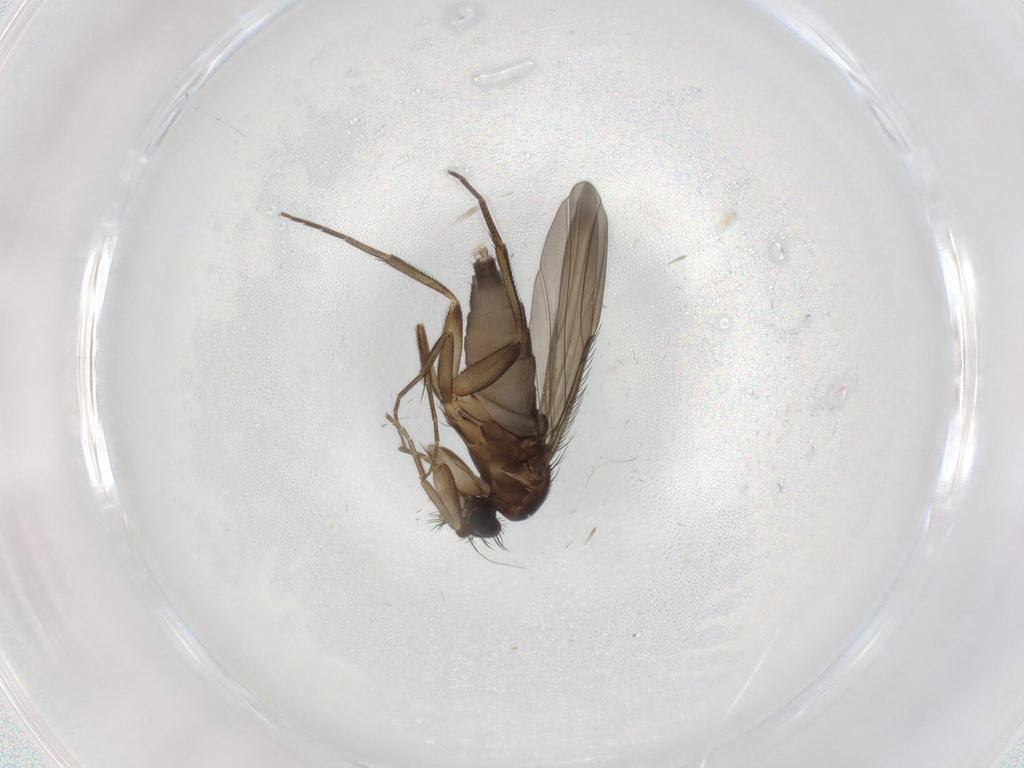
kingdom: Animalia
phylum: Arthropoda
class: Insecta
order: Diptera
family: Phoridae
